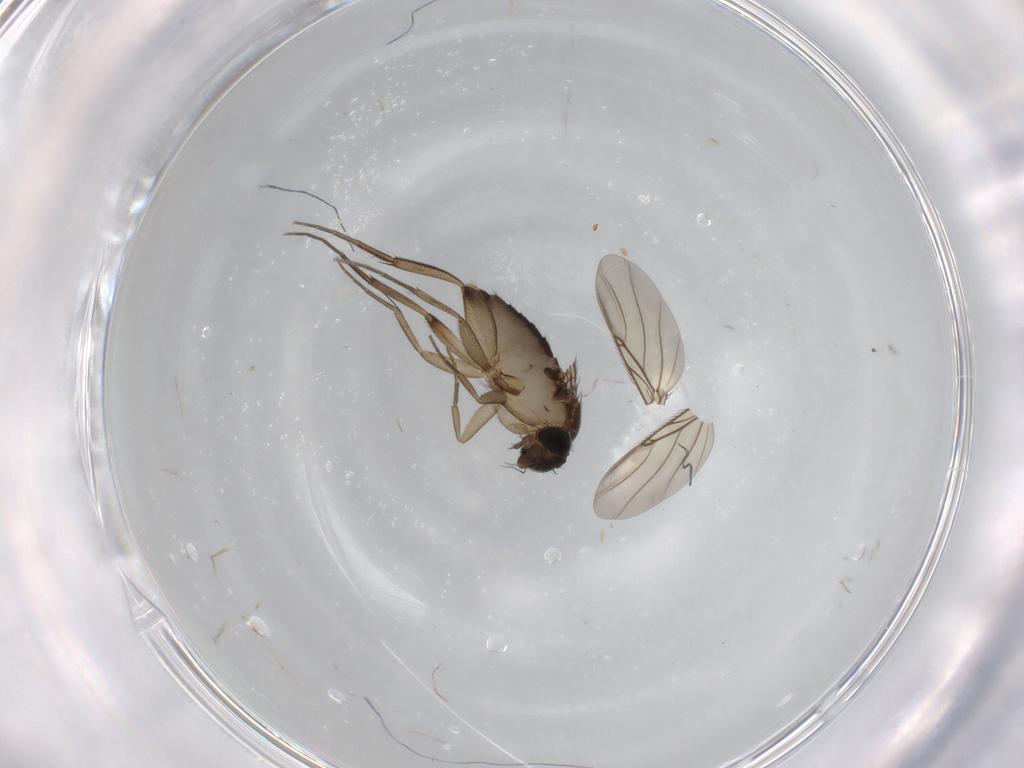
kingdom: Animalia
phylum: Arthropoda
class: Insecta
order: Diptera
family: Phoridae
